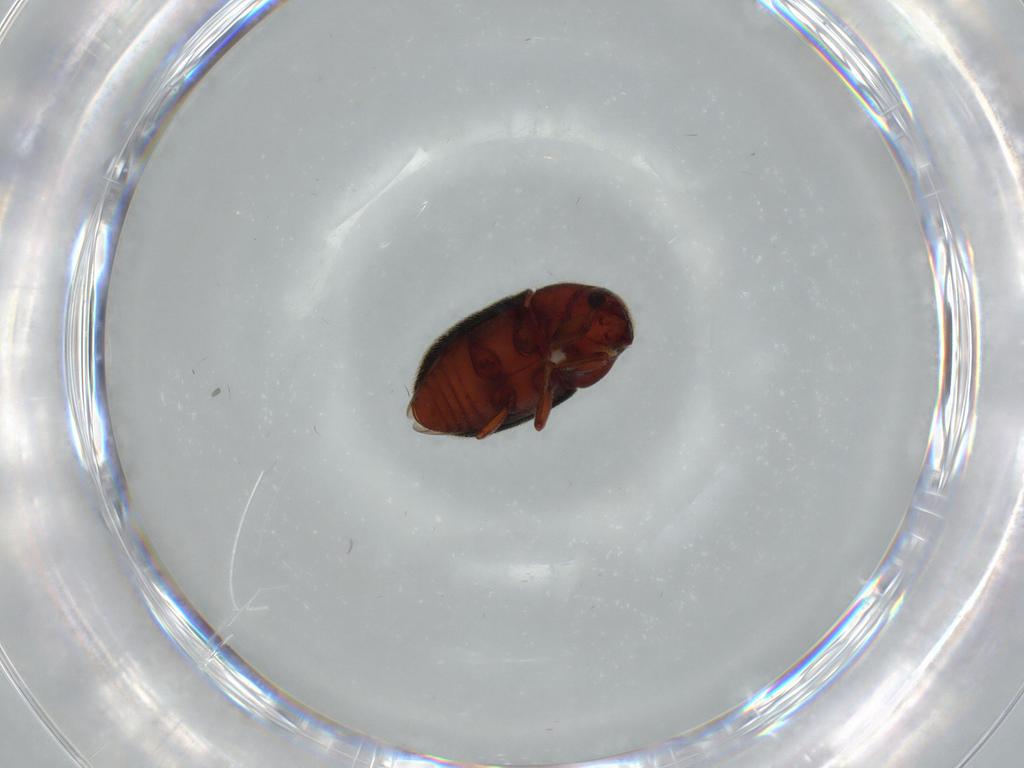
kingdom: Animalia
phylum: Arthropoda
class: Insecta
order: Coleoptera
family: Curculionidae
